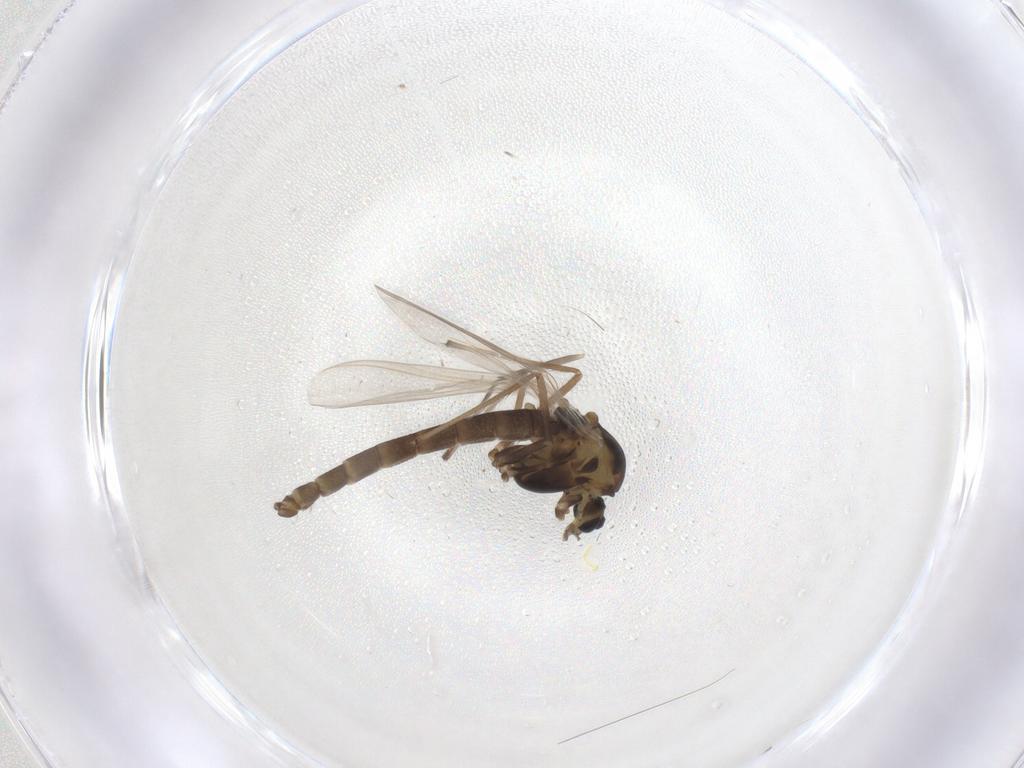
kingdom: Animalia
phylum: Arthropoda
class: Insecta
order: Diptera
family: Chironomidae
